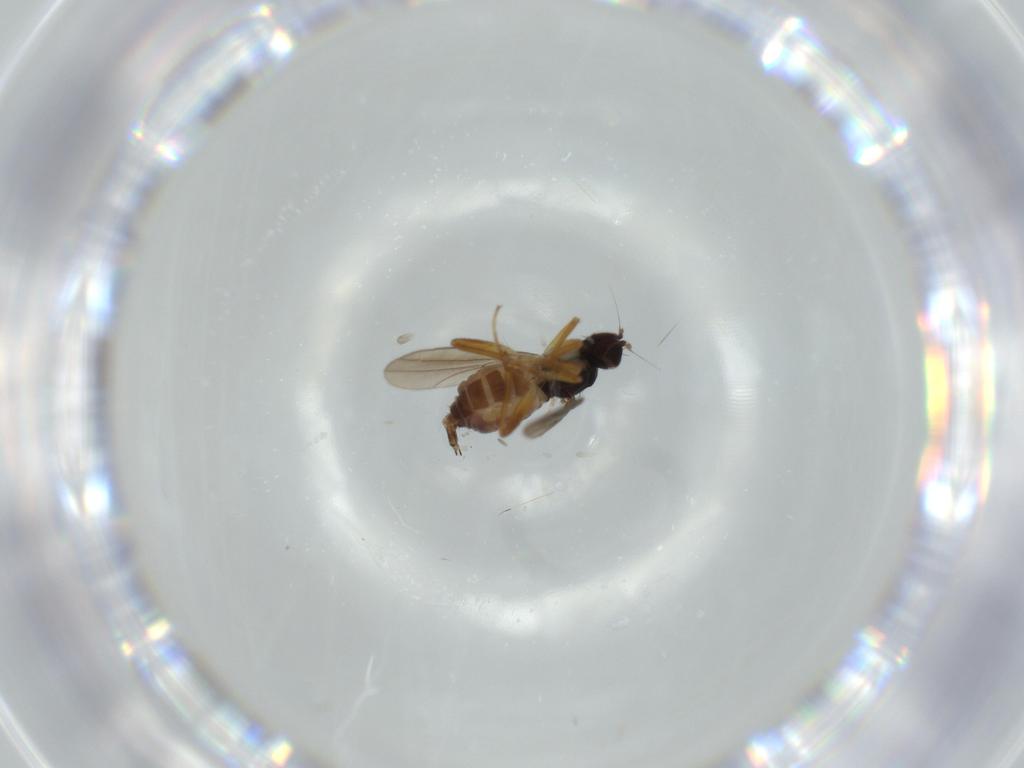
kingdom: Animalia
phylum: Arthropoda
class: Insecta
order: Diptera
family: Hybotidae
